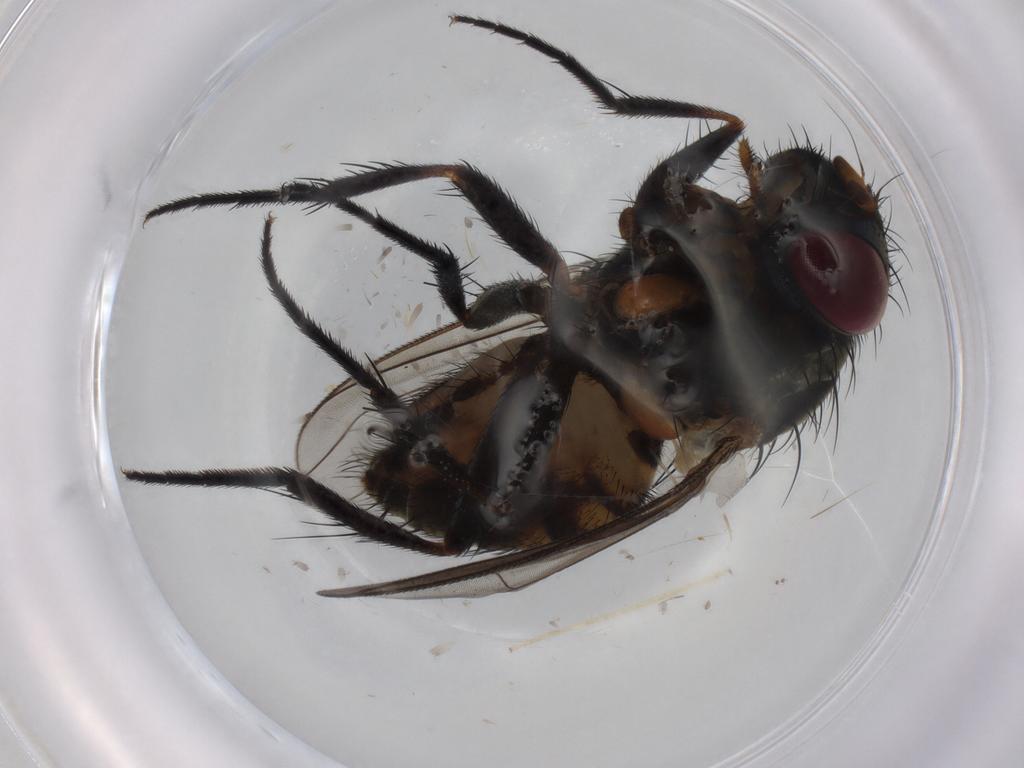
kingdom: Animalia
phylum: Arthropoda
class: Insecta
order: Diptera
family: Fannia
